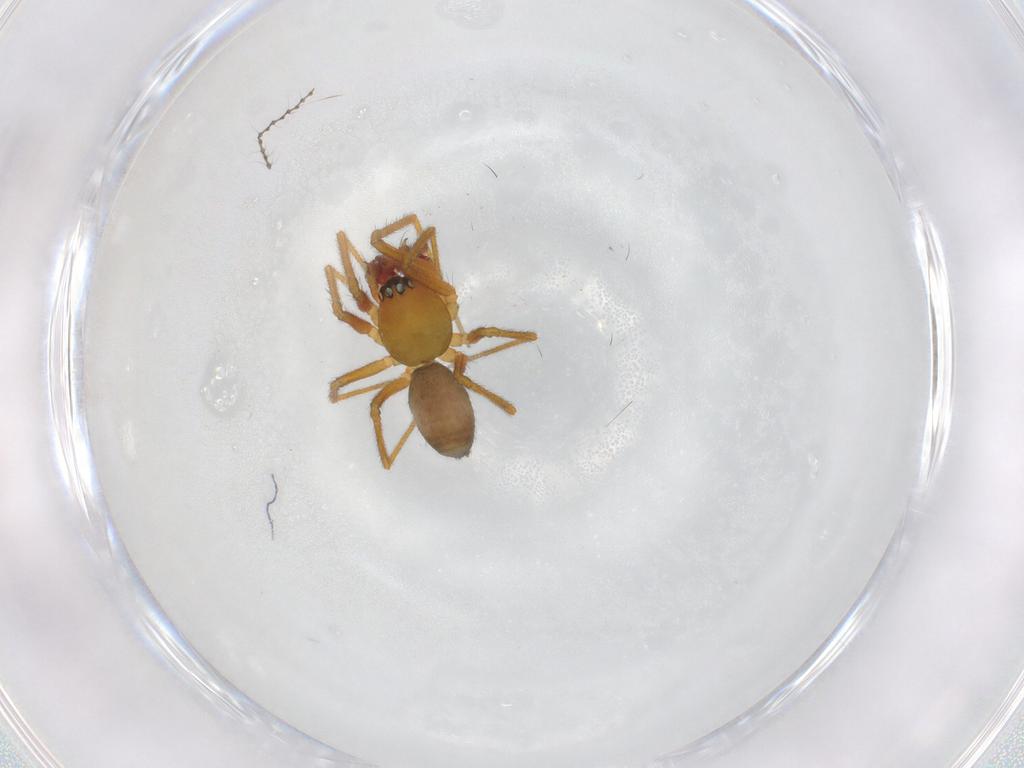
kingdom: Animalia
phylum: Arthropoda
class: Arachnida
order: Araneae
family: Linyphiidae
